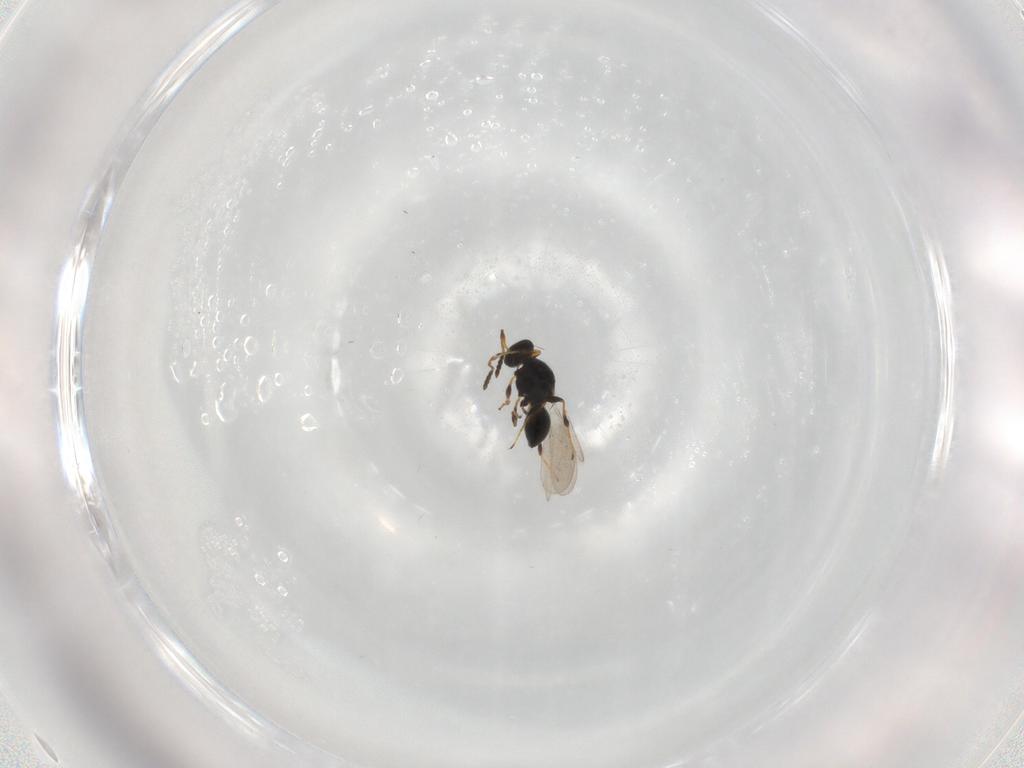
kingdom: Animalia
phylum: Arthropoda
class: Insecta
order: Hymenoptera
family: Platygastridae
